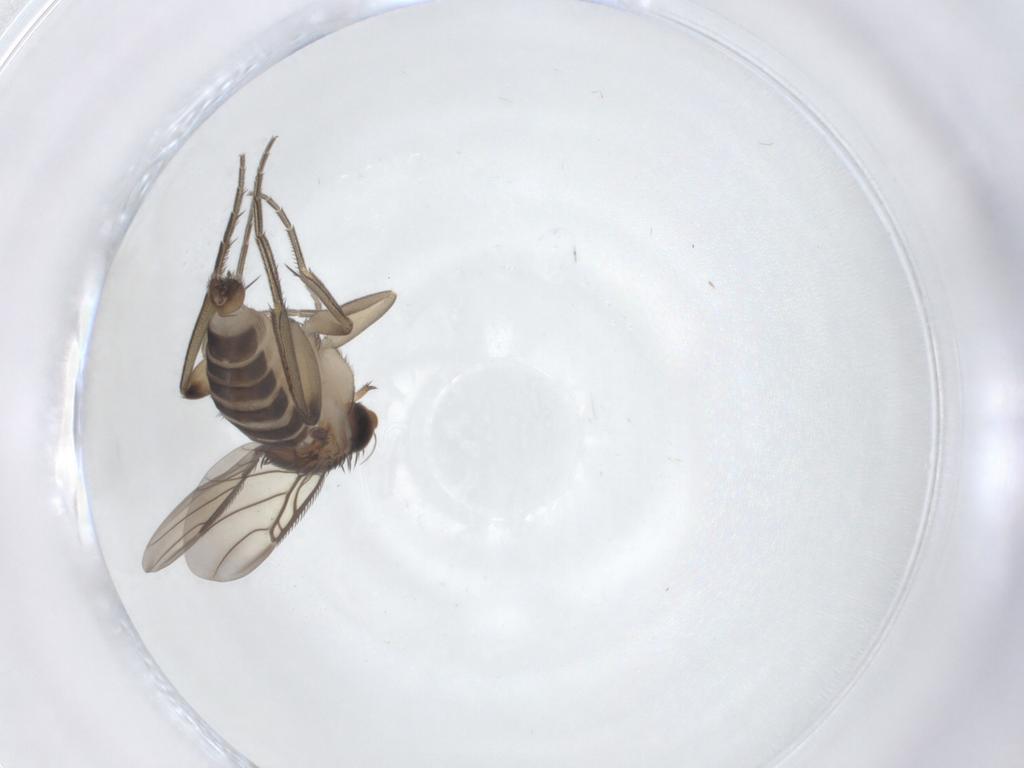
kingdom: Animalia
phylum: Arthropoda
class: Insecta
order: Diptera
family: Phoridae
